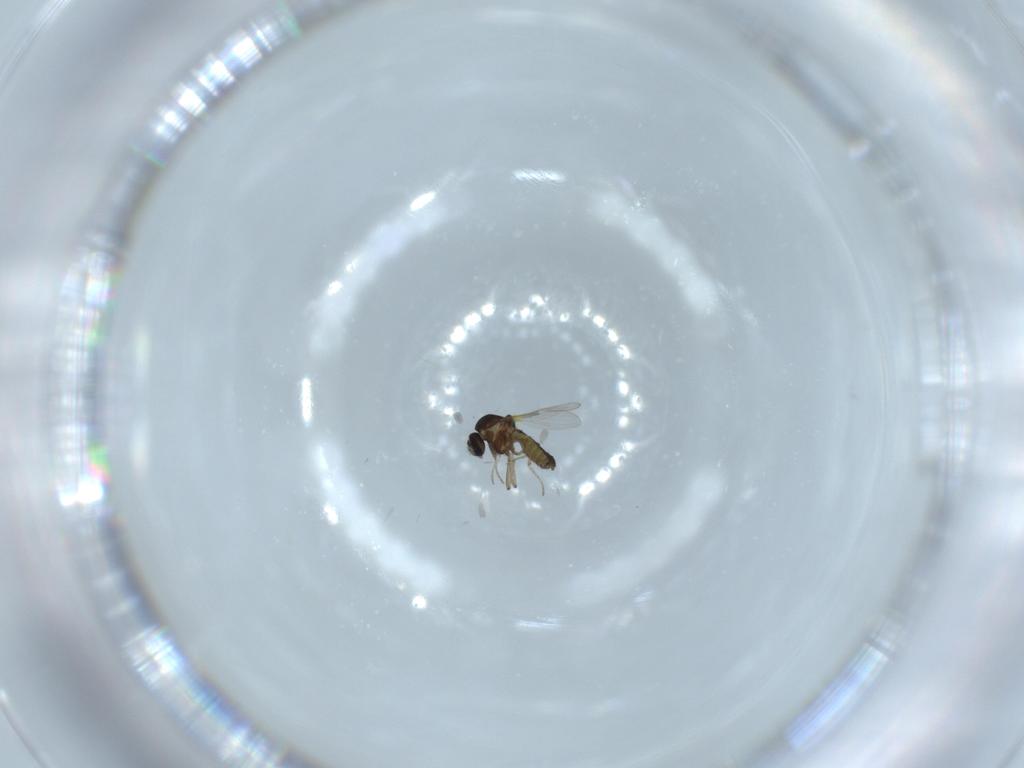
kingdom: Animalia
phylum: Arthropoda
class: Insecta
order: Diptera
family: Ceratopogonidae
